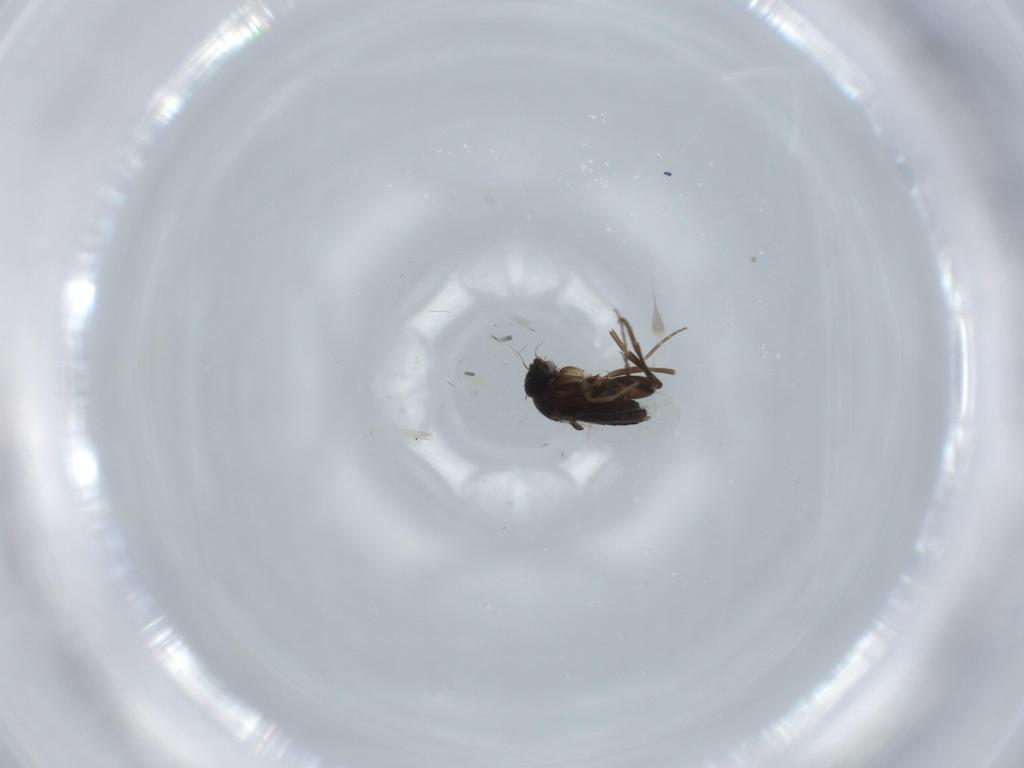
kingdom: Animalia
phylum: Arthropoda
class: Insecta
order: Diptera
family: Phoridae
